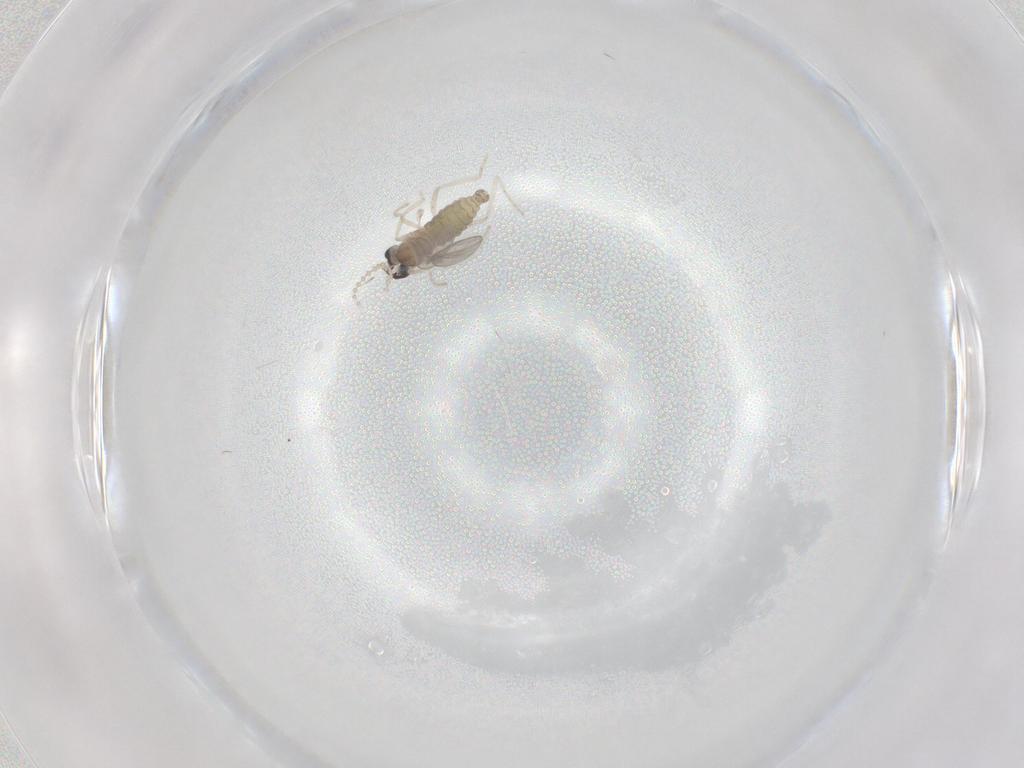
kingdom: Animalia
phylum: Arthropoda
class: Insecta
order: Diptera
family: Cecidomyiidae
